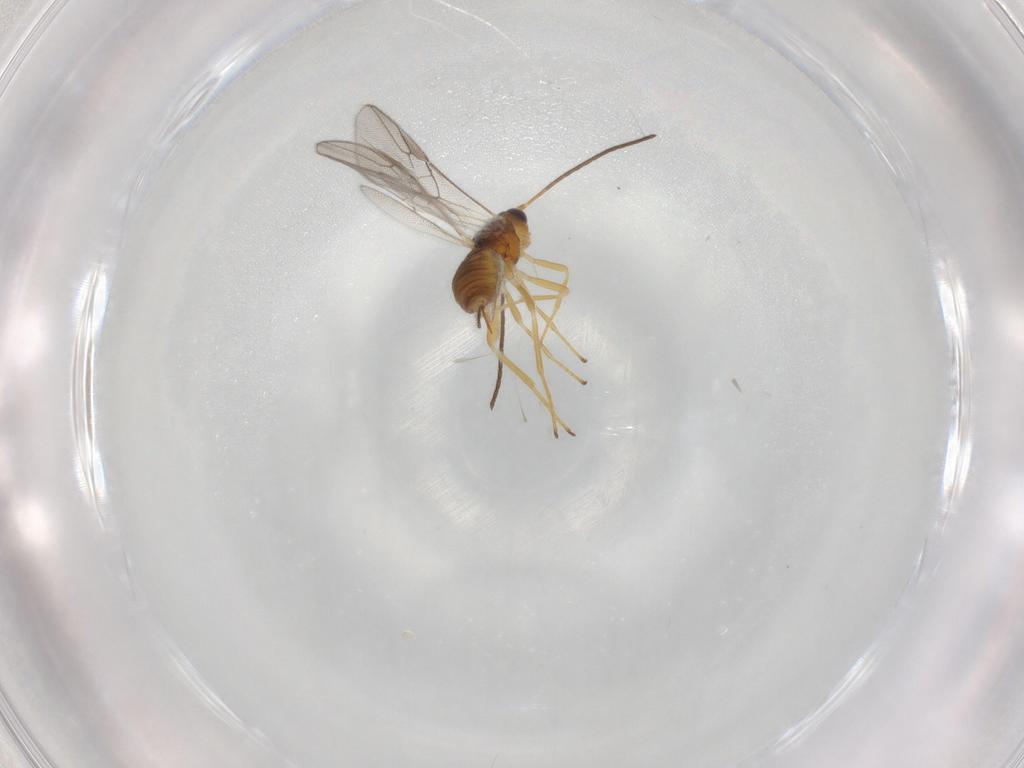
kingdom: Animalia
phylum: Arthropoda
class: Insecta
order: Hymenoptera
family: Braconidae
